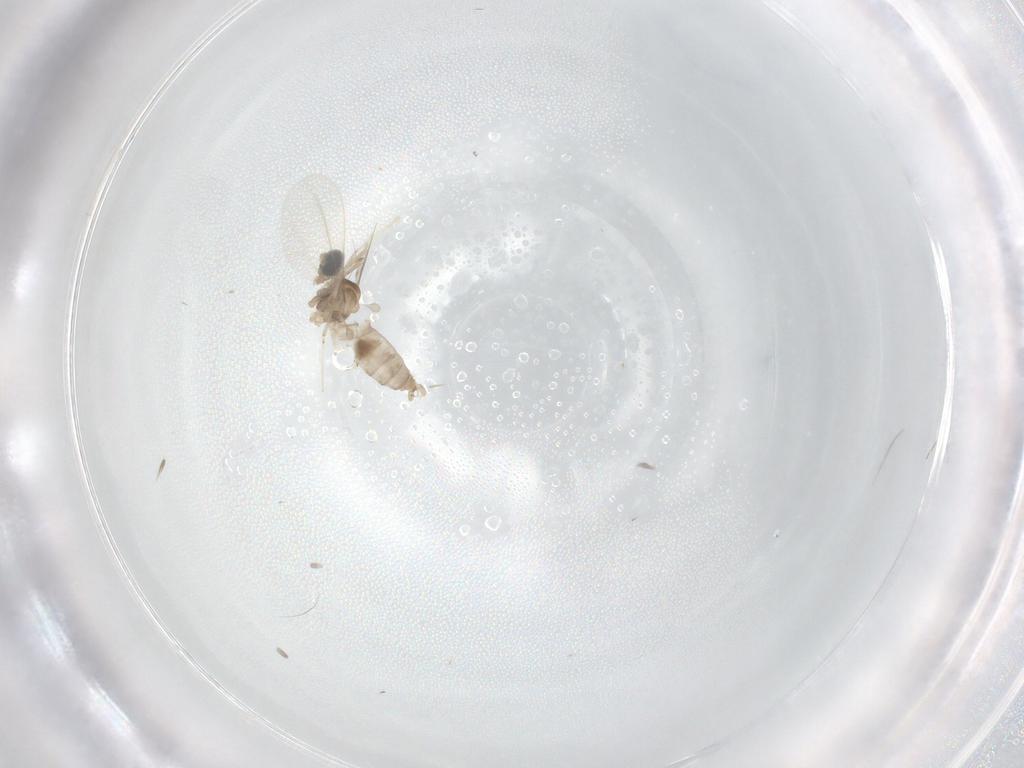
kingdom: Animalia
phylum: Arthropoda
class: Insecta
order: Diptera
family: Cecidomyiidae
